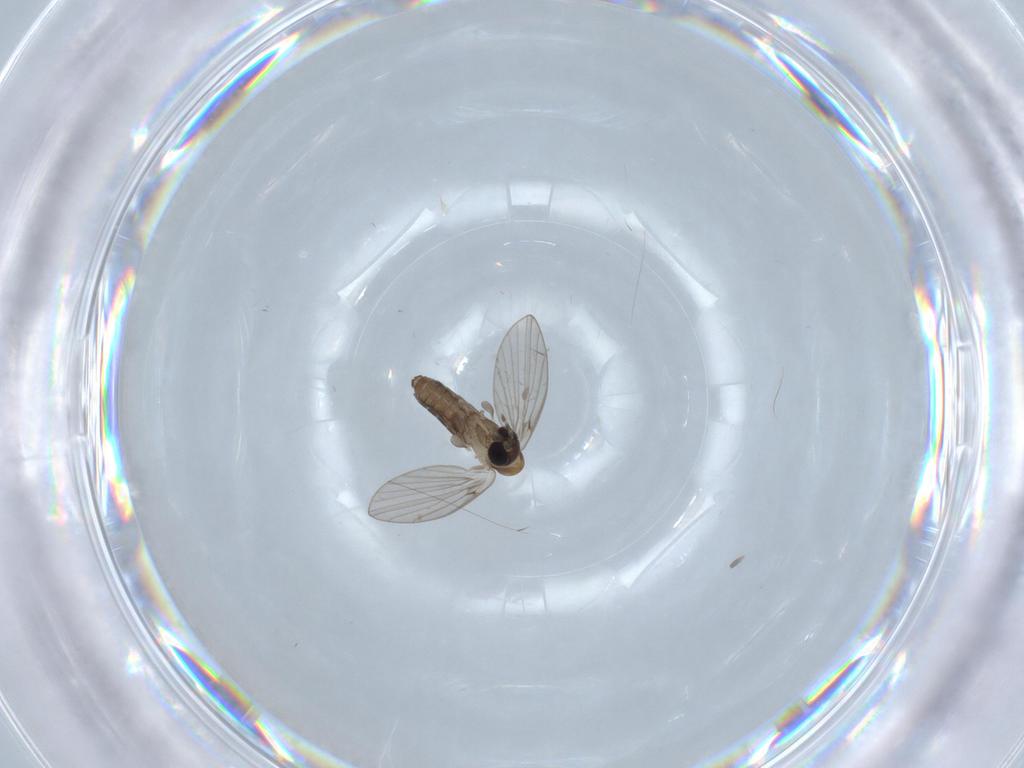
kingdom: Animalia
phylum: Arthropoda
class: Insecta
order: Diptera
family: Psychodidae
